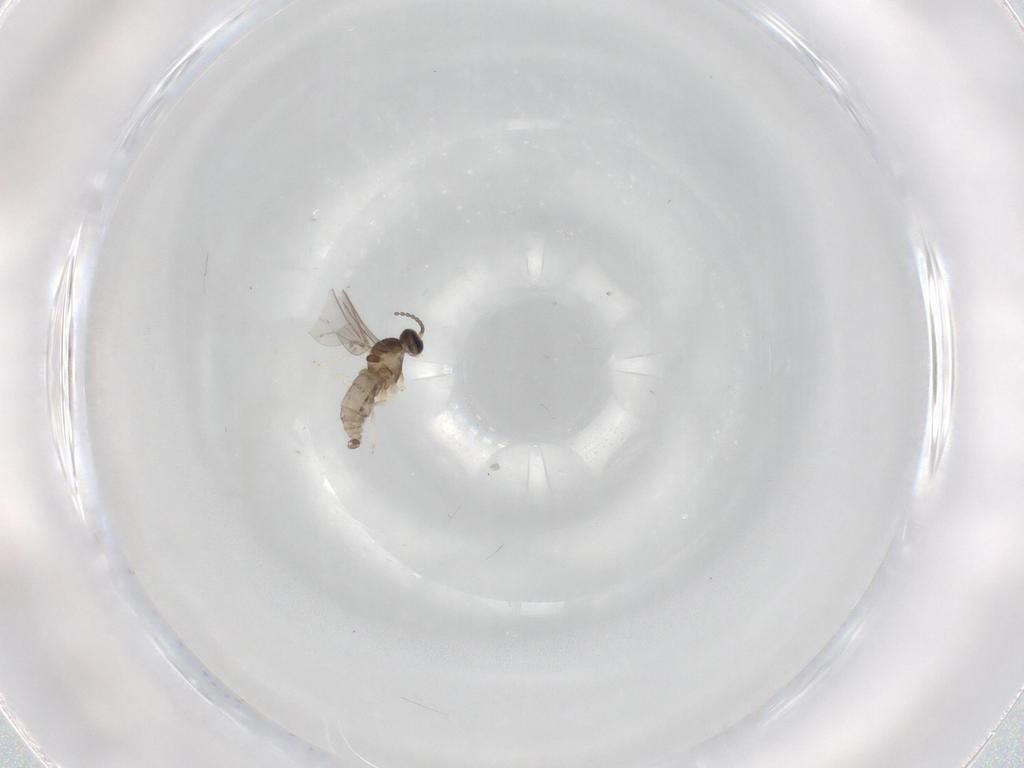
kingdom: Animalia
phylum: Arthropoda
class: Insecta
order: Diptera
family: Cecidomyiidae
